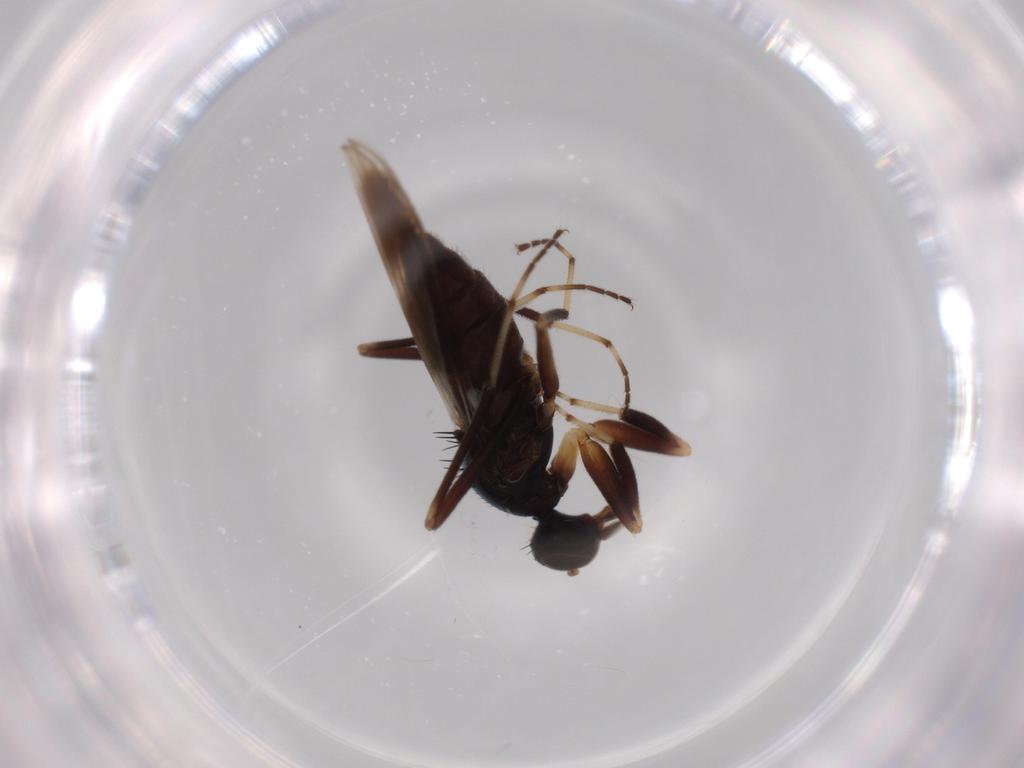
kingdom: Animalia
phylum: Arthropoda
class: Insecta
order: Diptera
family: Hybotidae
